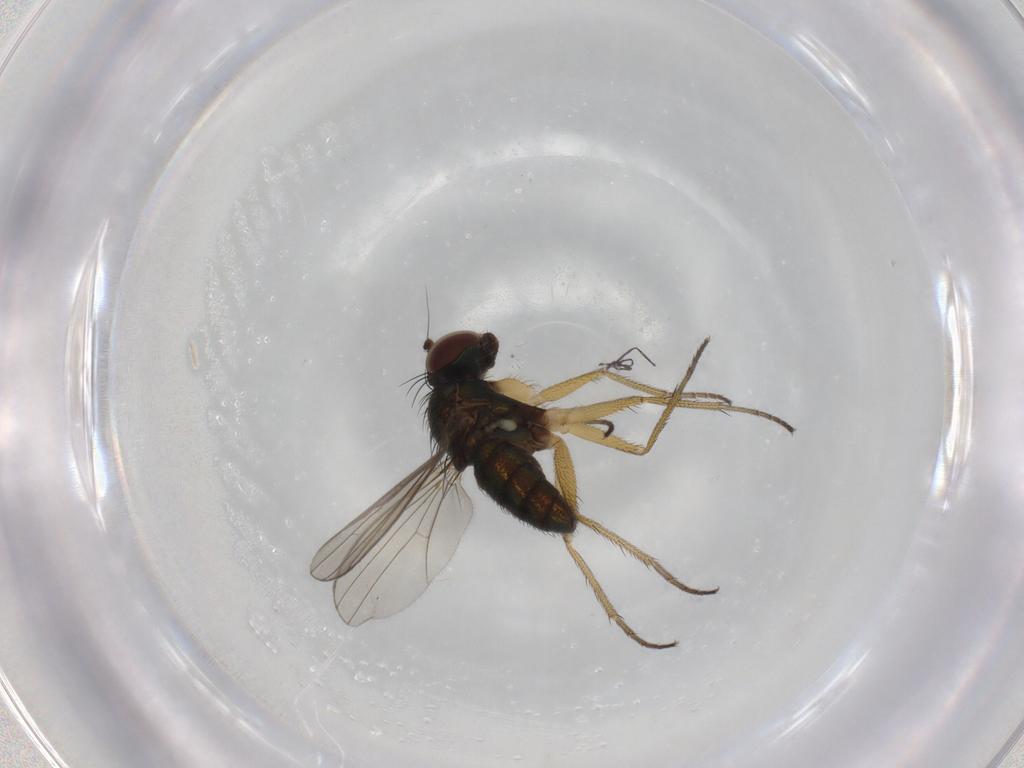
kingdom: Animalia
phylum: Arthropoda
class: Insecta
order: Diptera
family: Dolichopodidae
